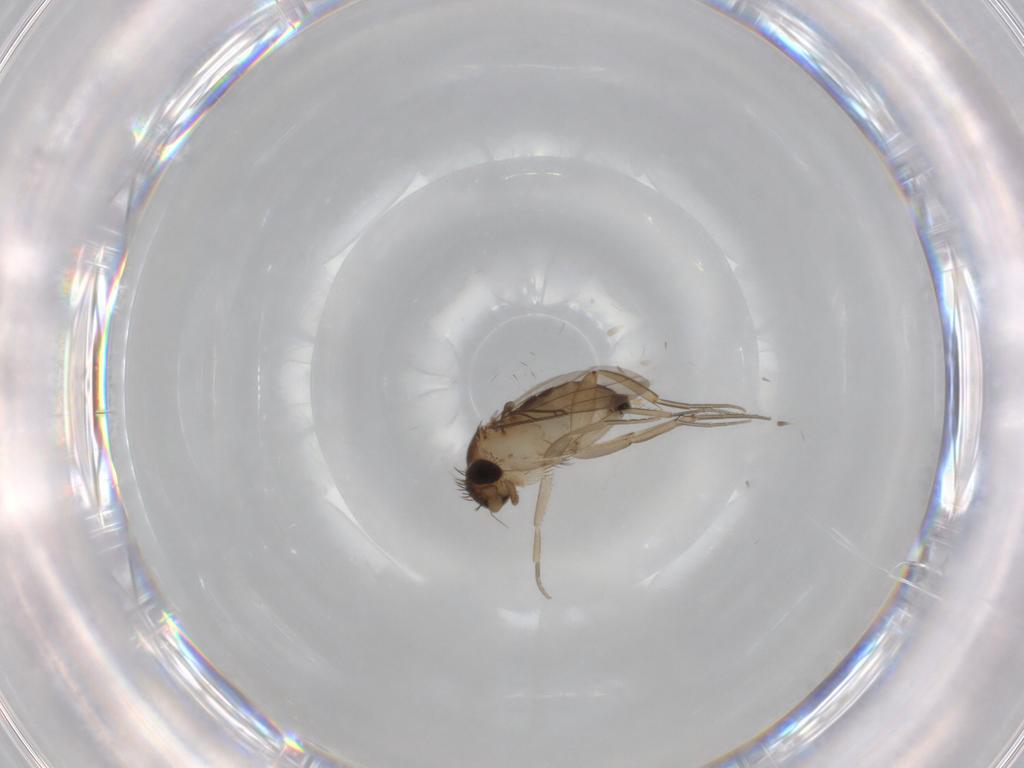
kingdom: Animalia
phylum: Arthropoda
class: Insecta
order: Diptera
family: Phoridae
